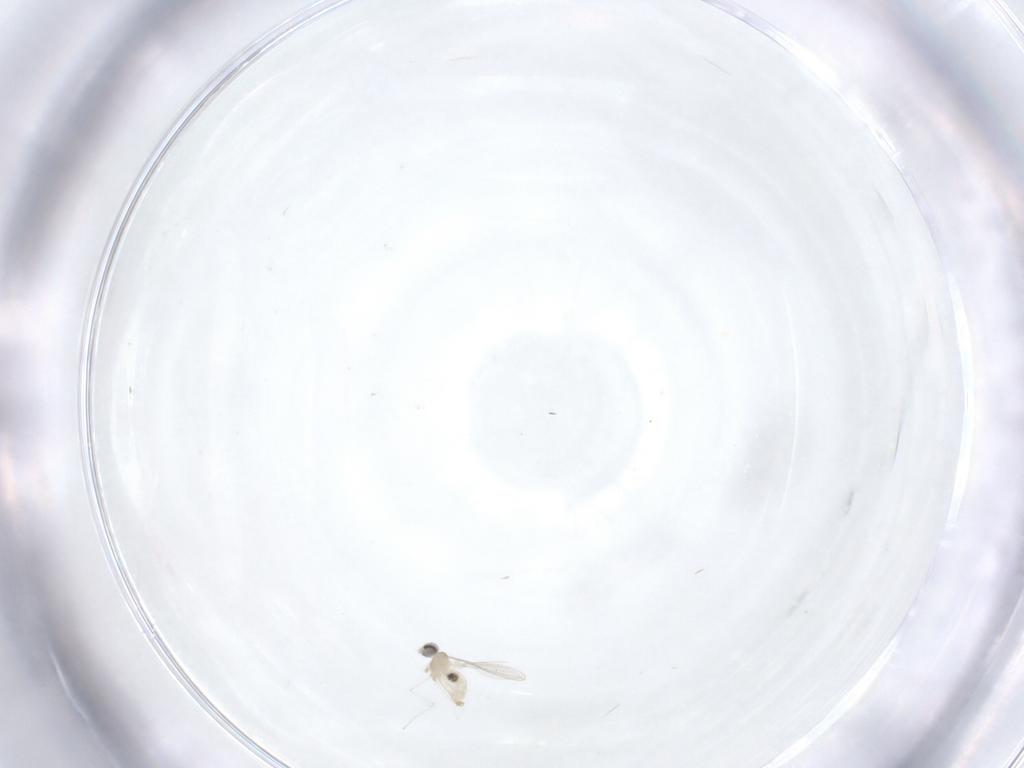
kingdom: Animalia
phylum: Arthropoda
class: Insecta
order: Diptera
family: Cecidomyiidae
